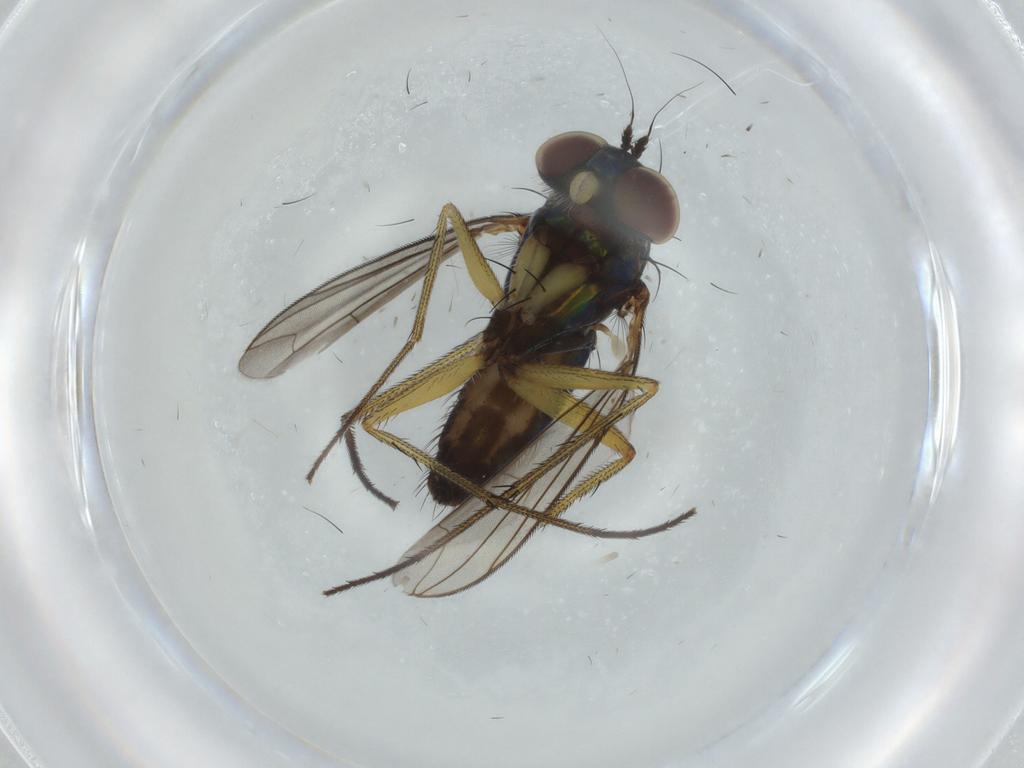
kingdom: Animalia
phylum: Arthropoda
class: Insecta
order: Diptera
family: Dolichopodidae
